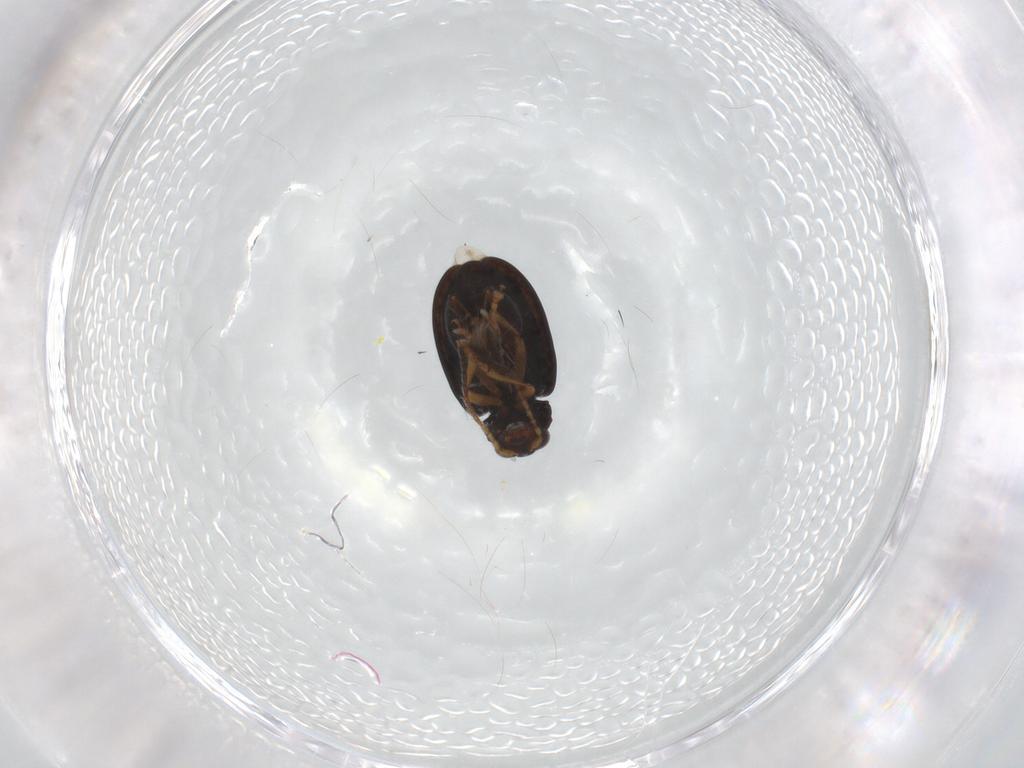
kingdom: Animalia
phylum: Arthropoda
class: Insecta
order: Coleoptera
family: Chrysomelidae
